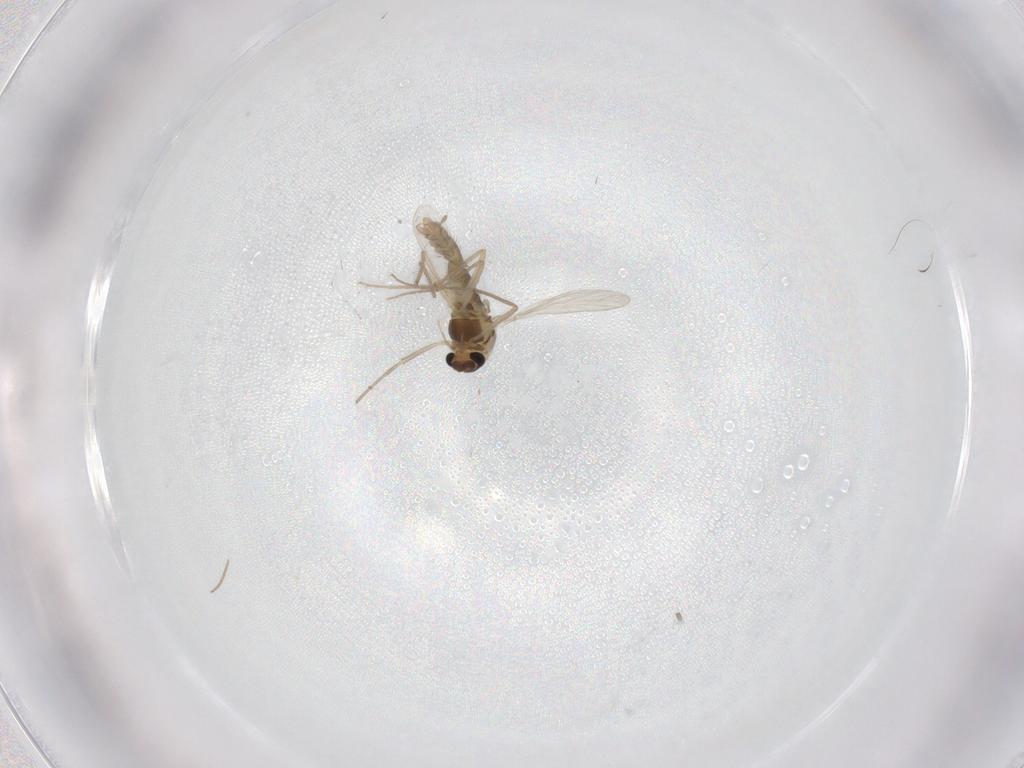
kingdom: Animalia
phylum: Arthropoda
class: Insecta
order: Diptera
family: Chironomidae
